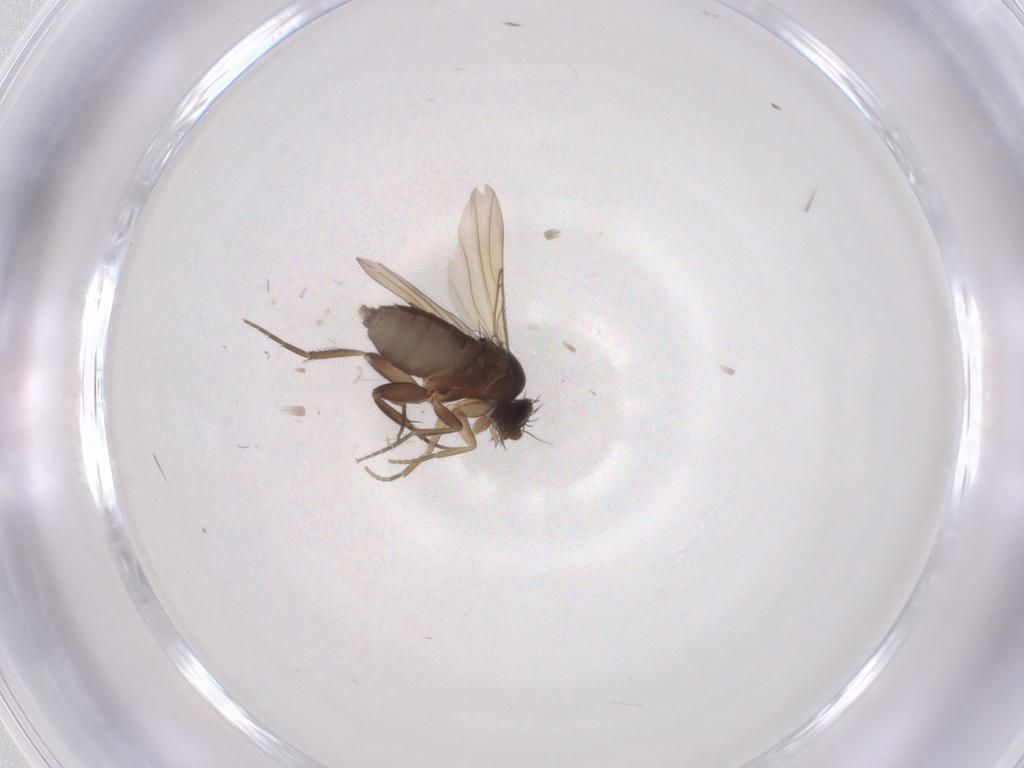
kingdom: Animalia
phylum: Arthropoda
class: Insecta
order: Diptera
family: Phoridae
